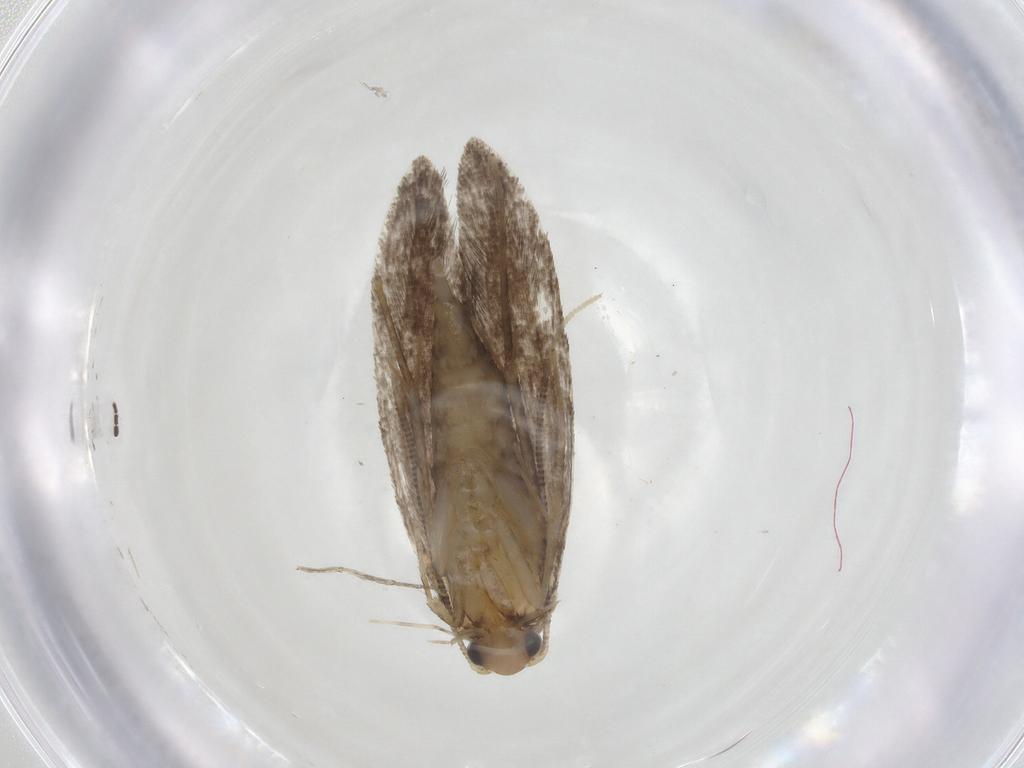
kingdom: Animalia
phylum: Arthropoda
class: Insecta
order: Lepidoptera
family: Tineidae
